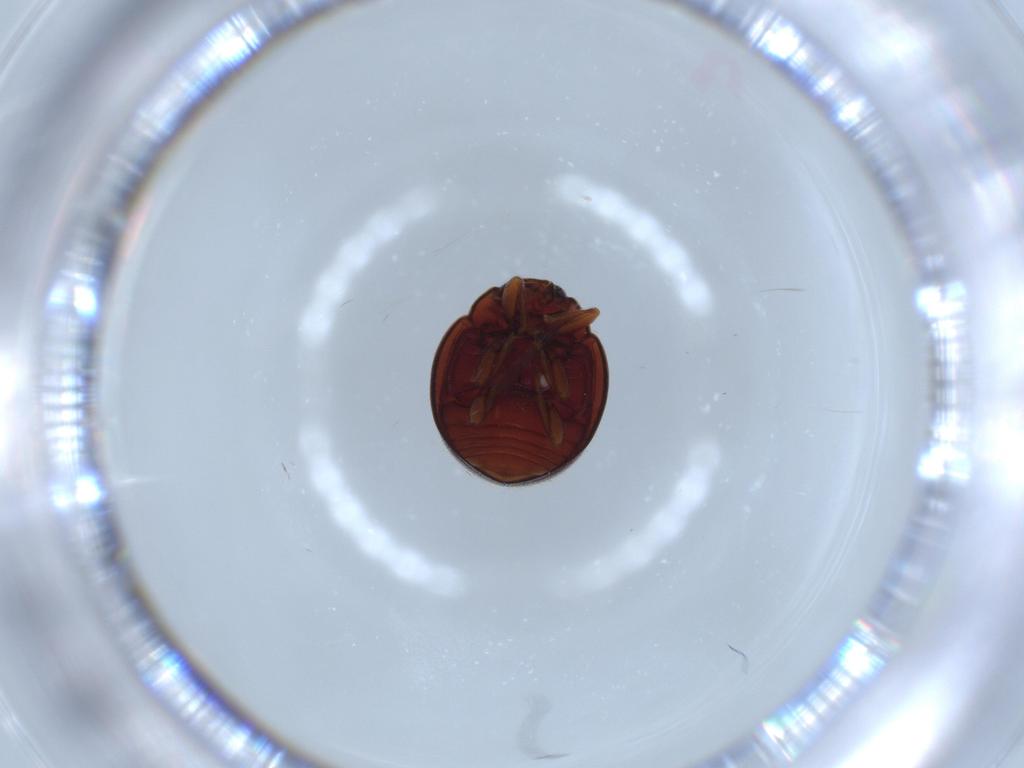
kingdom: Animalia
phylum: Arthropoda
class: Insecta
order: Coleoptera
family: Coccinellidae
